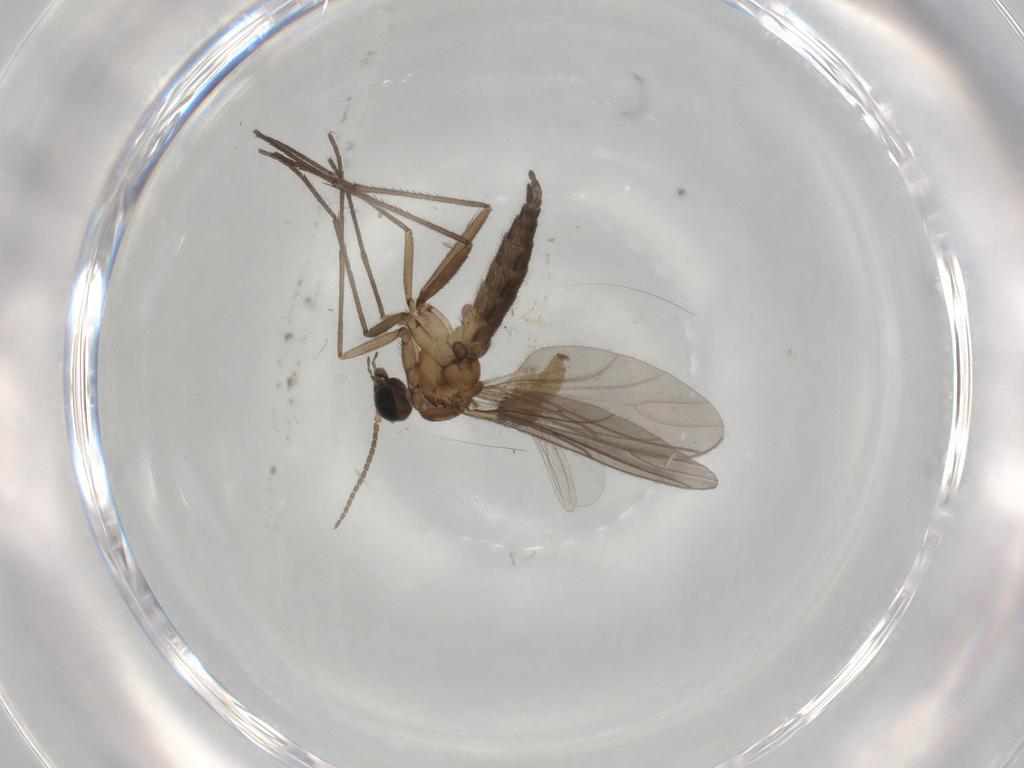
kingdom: Animalia
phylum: Arthropoda
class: Insecta
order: Diptera
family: Sciaridae
